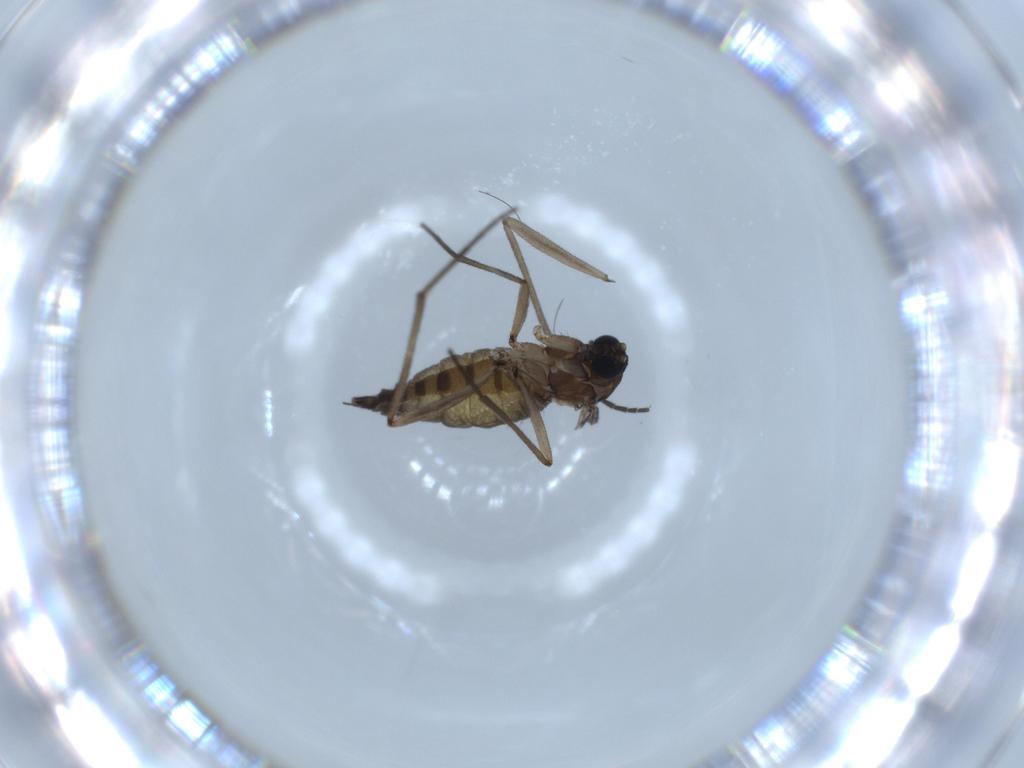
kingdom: Animalia
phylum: Arthropoda
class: Insecta
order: Diptera
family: Sciaridae
